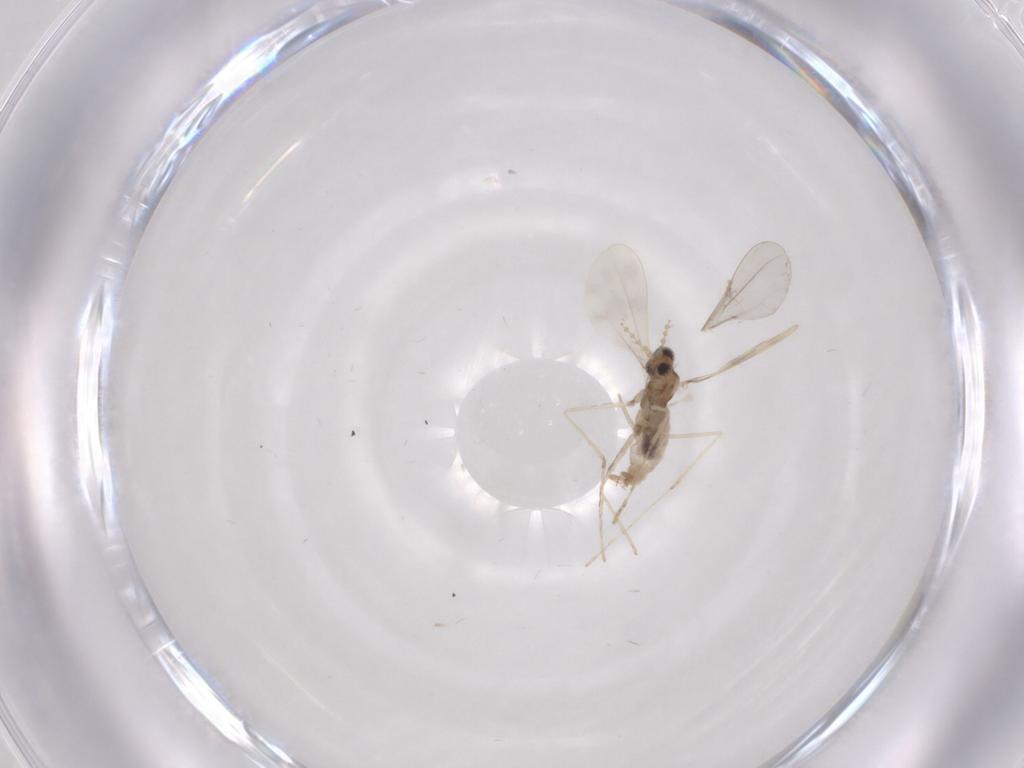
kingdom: Animalia
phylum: Arthropoda
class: Insecta
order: Diptera
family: Cecidomyiidae
